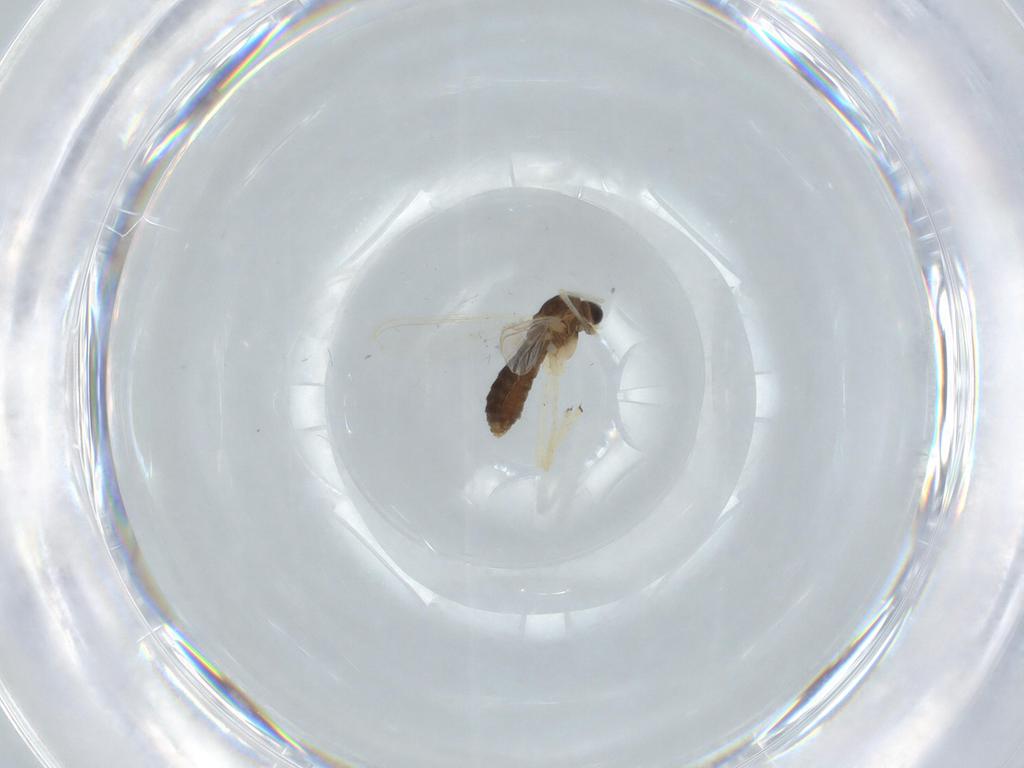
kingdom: Animalia
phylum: Arthropoda
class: Insecta
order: Diptera
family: Chironomidae
